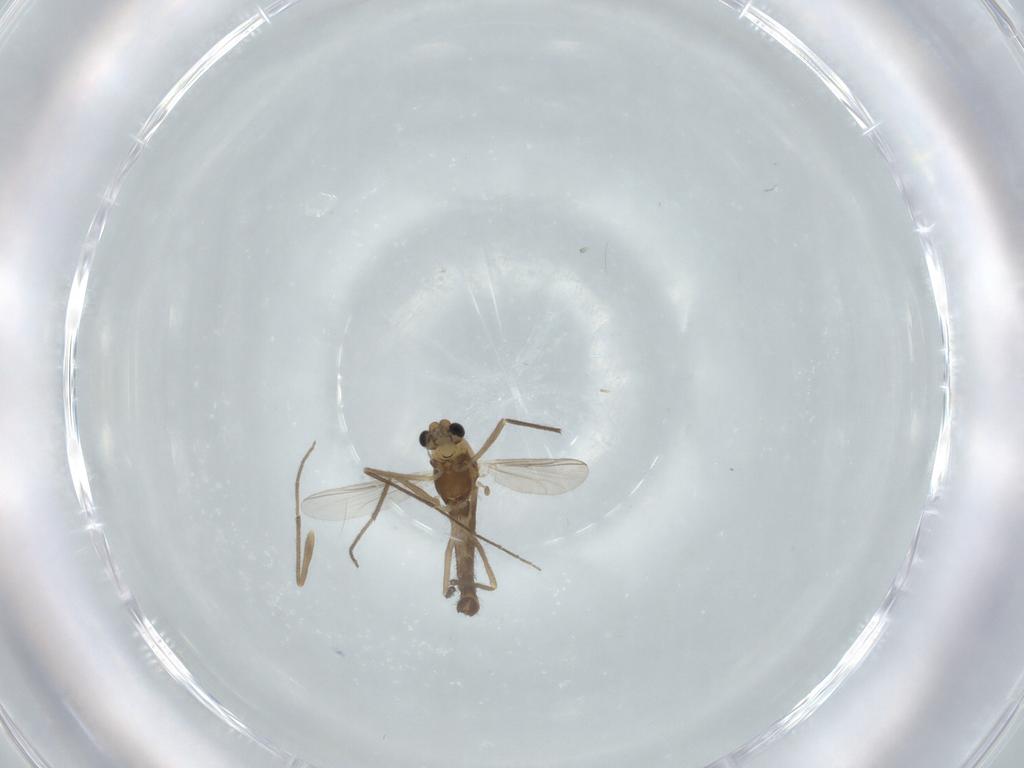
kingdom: Animalia
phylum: Arthropoda
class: Insecta
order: Diptera
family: Chironomidae
